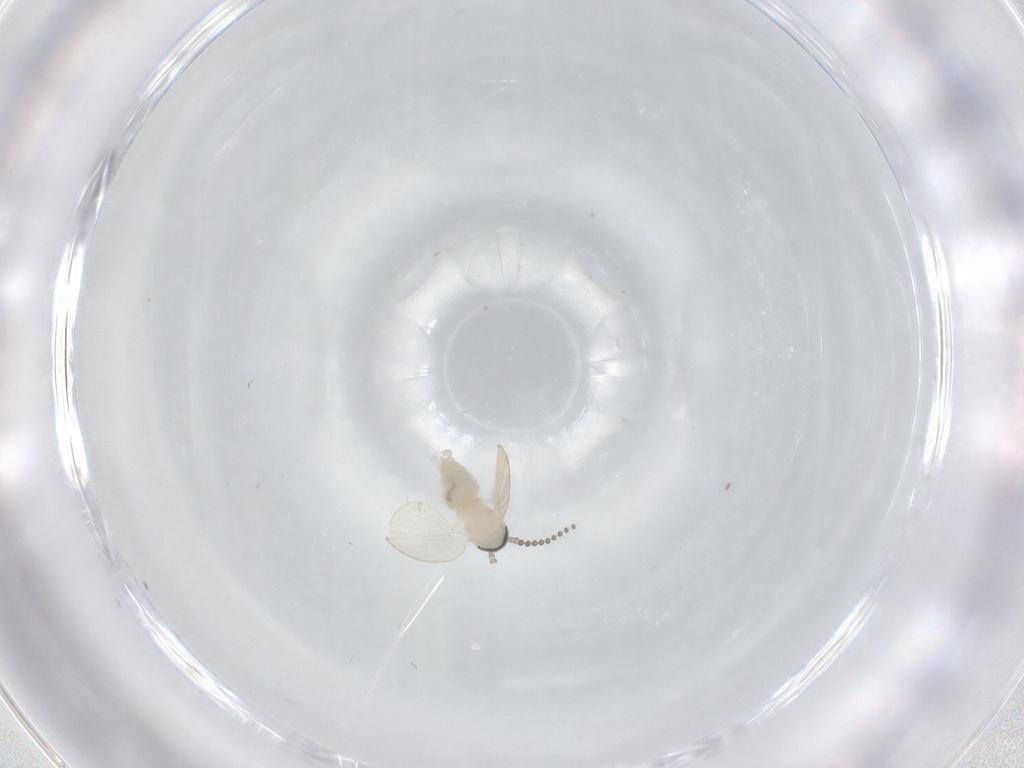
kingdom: Animalia
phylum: Arthropoda
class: Insecta
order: Diptera
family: Psychodidae
